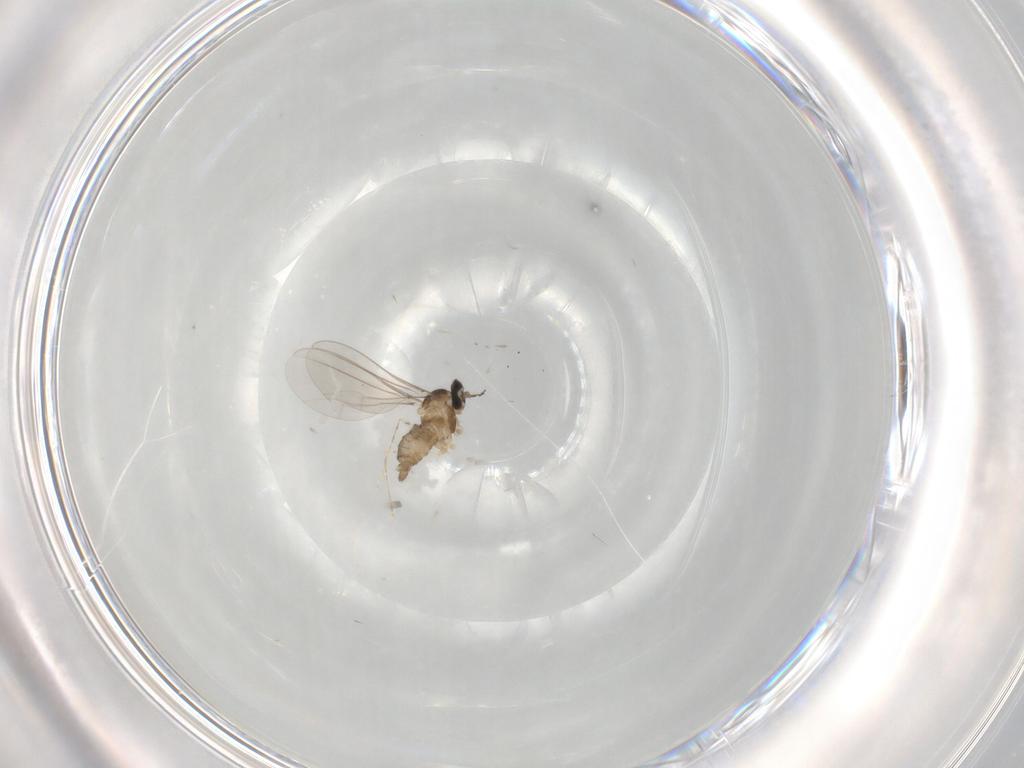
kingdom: Animalia
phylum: Arthropoda
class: Insecta
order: Diptera
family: Cecidomyiidae
